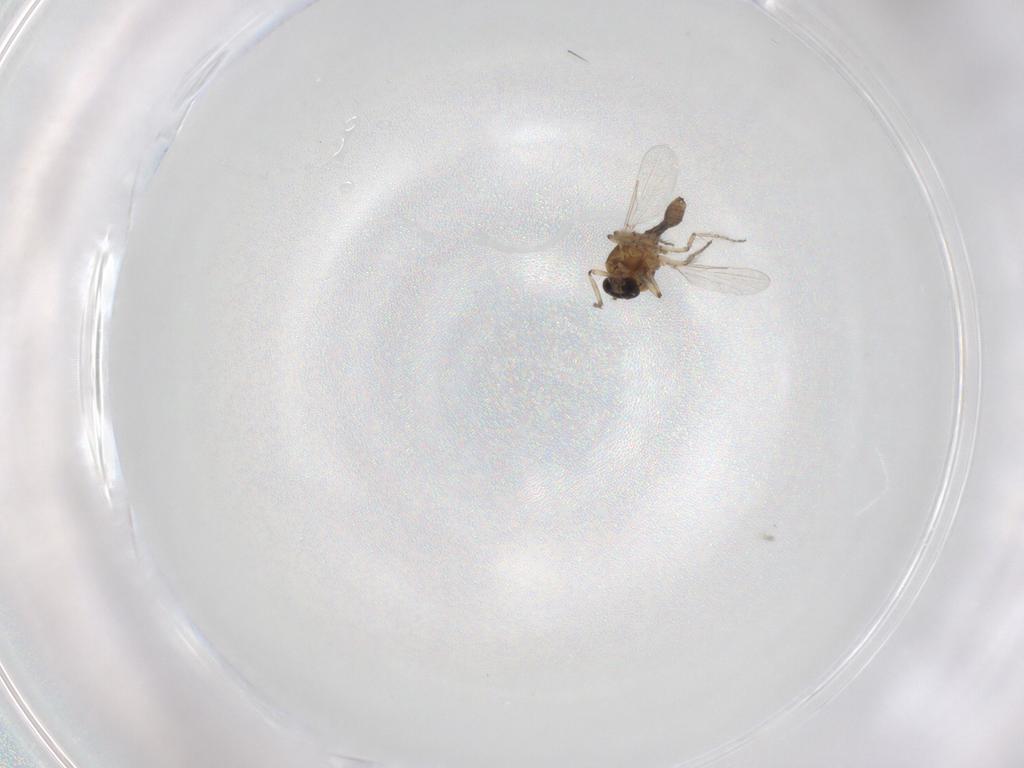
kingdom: Animalia
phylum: Arthropoda
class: Insecta
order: Diptera
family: Ceratopogonidae
